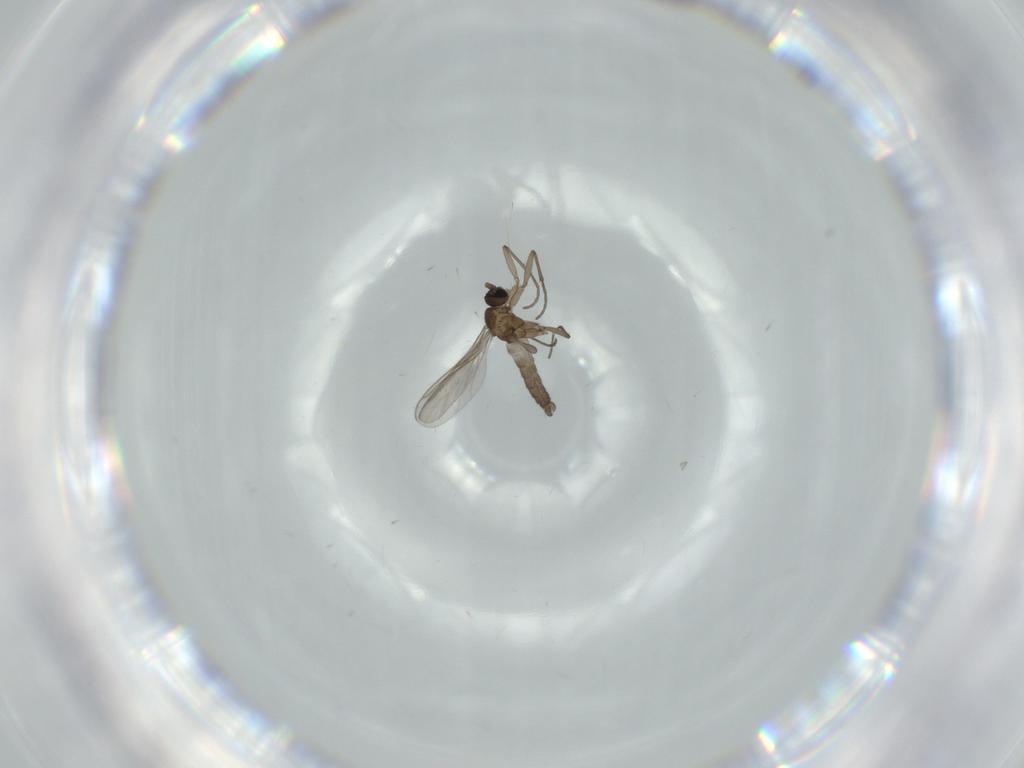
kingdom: Animalia
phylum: Arthropoda
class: Insecta
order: Diptera
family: Sciaridae
